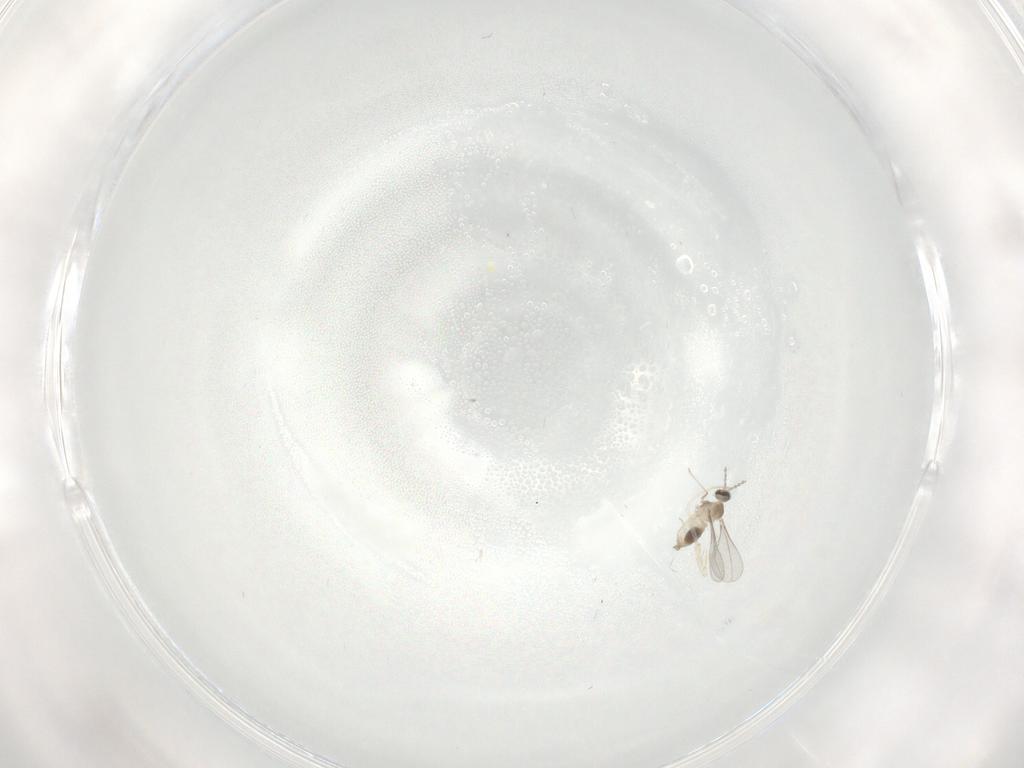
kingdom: Animalia
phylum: Arthropoda
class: Insecta
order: Diptera
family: Cecidomyiidae
